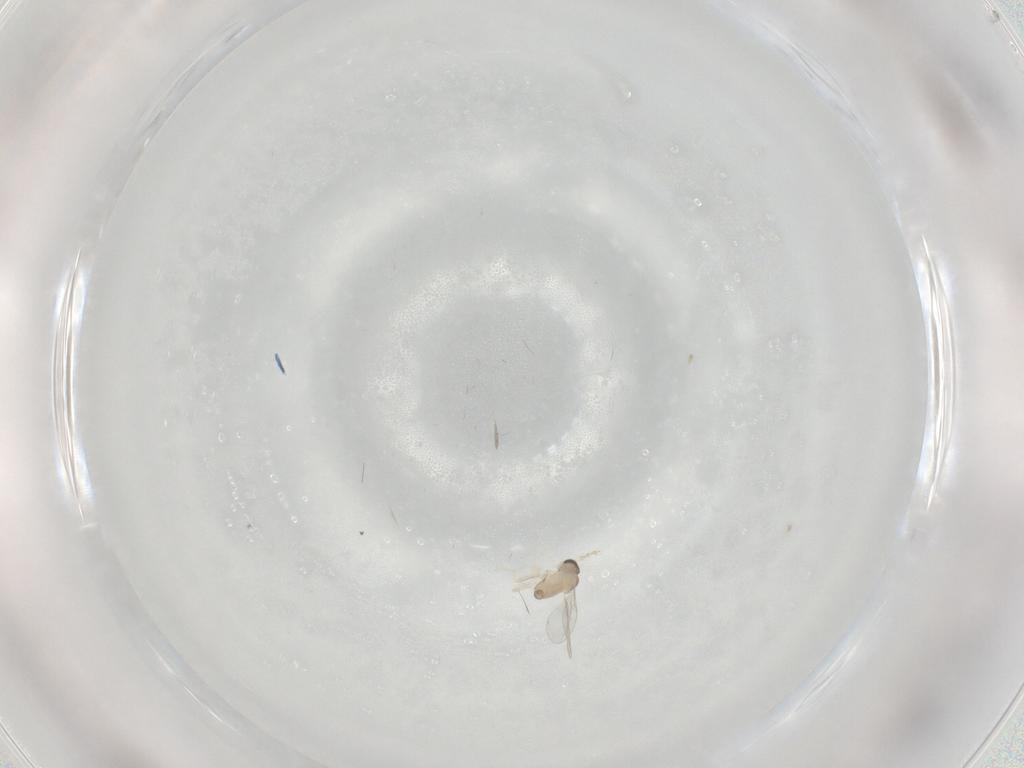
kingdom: Animalia
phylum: Arthropoda
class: Insecta
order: Diptera
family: Cecidomyiidae
